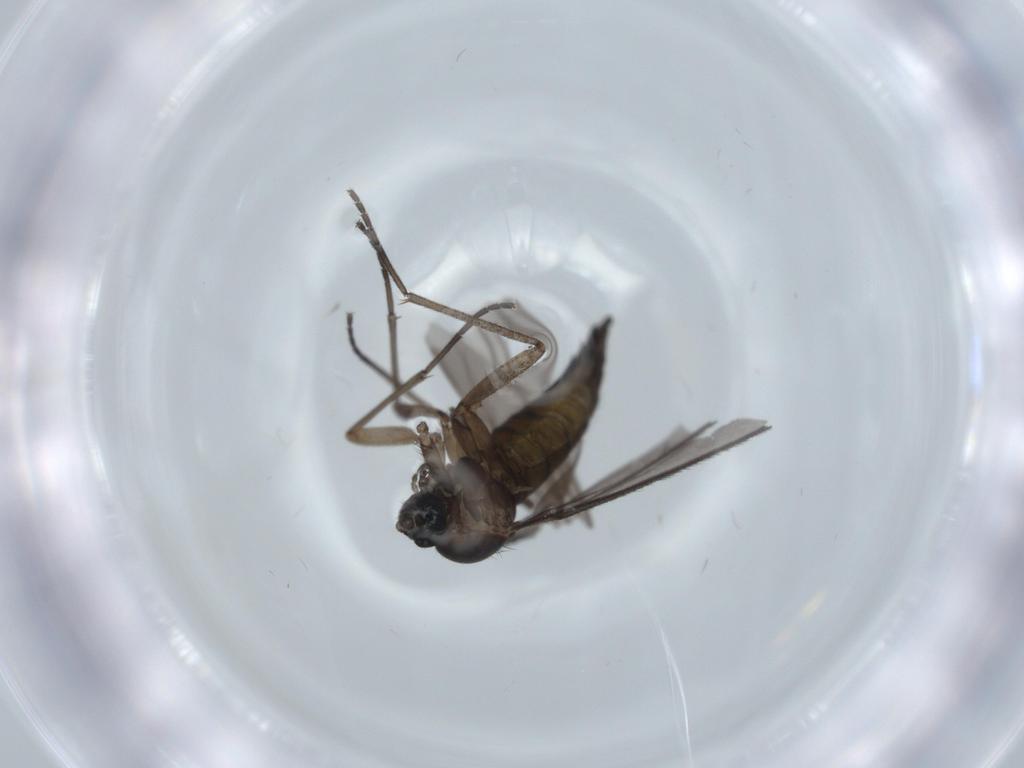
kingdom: Animalia
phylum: Arthropoda
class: Insecta
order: Diptera
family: Sciaridae
